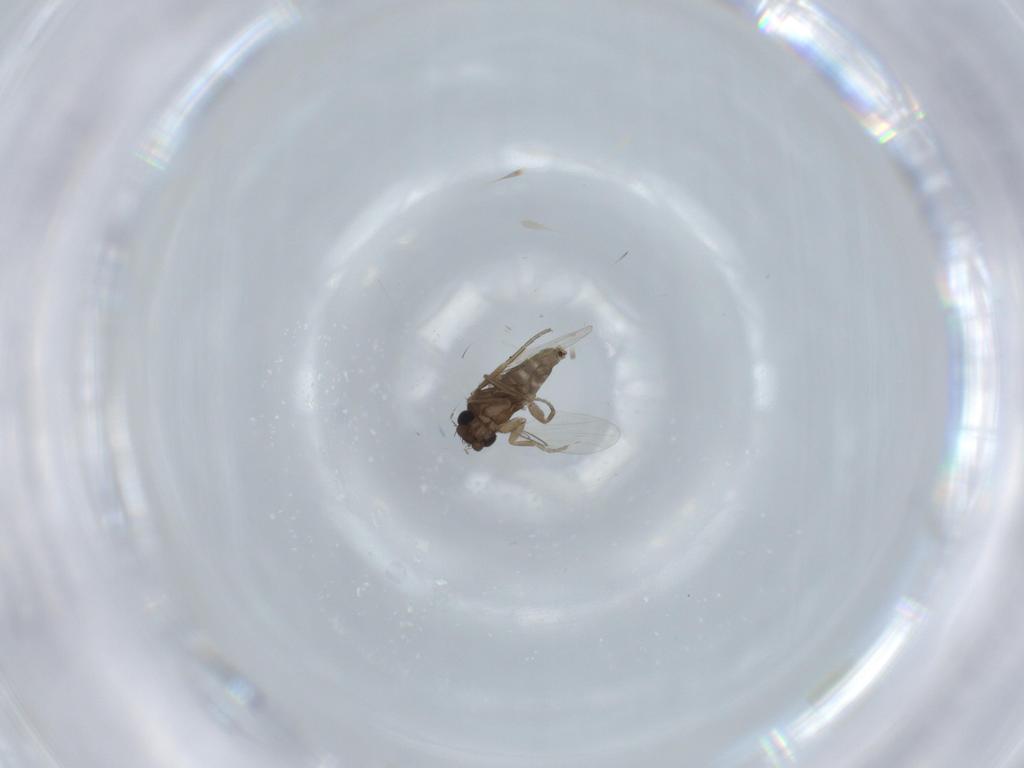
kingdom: Animalia
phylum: Arthropoda
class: Insecta
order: Diptera
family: Phoridae
